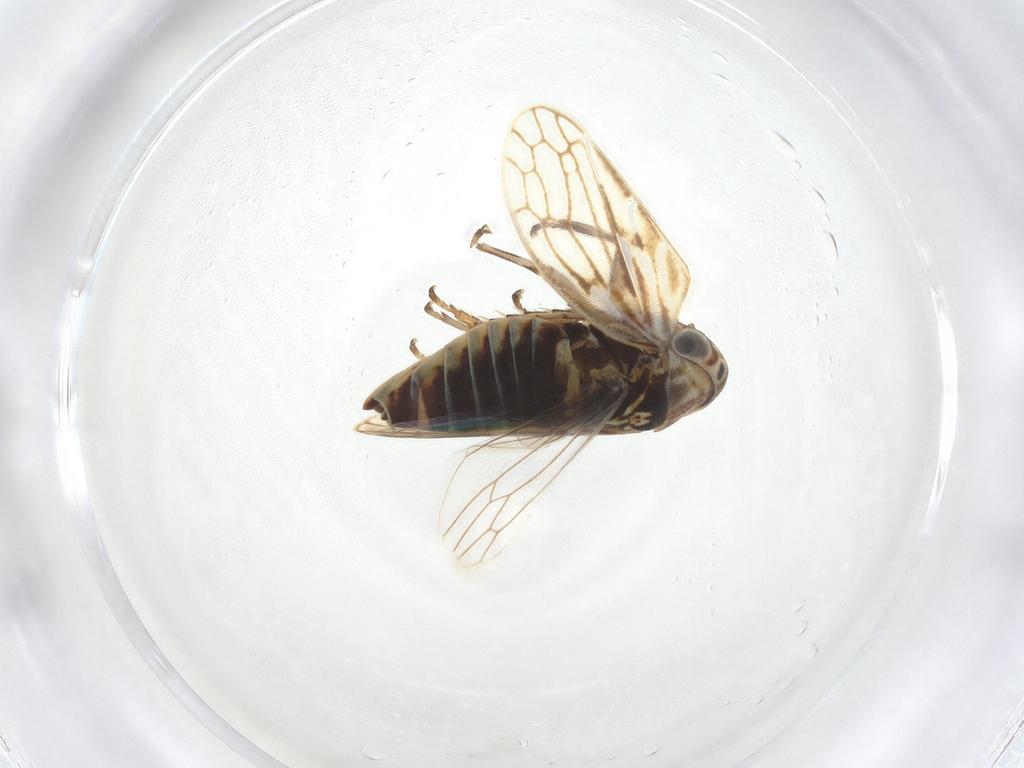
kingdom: Animalia
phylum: Arthropoda
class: Insecta
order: Hemiptera
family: Cicadellidae
